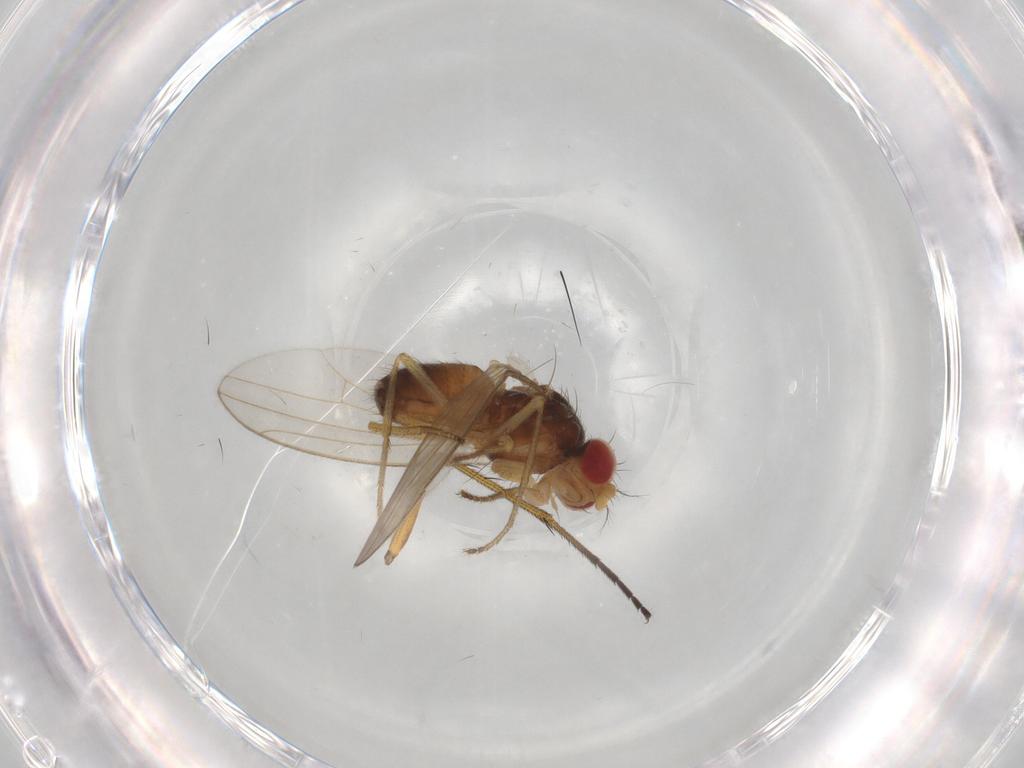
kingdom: Animalia
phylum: Arthropoda
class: Insecta
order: Diptera
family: Drosophilidae
